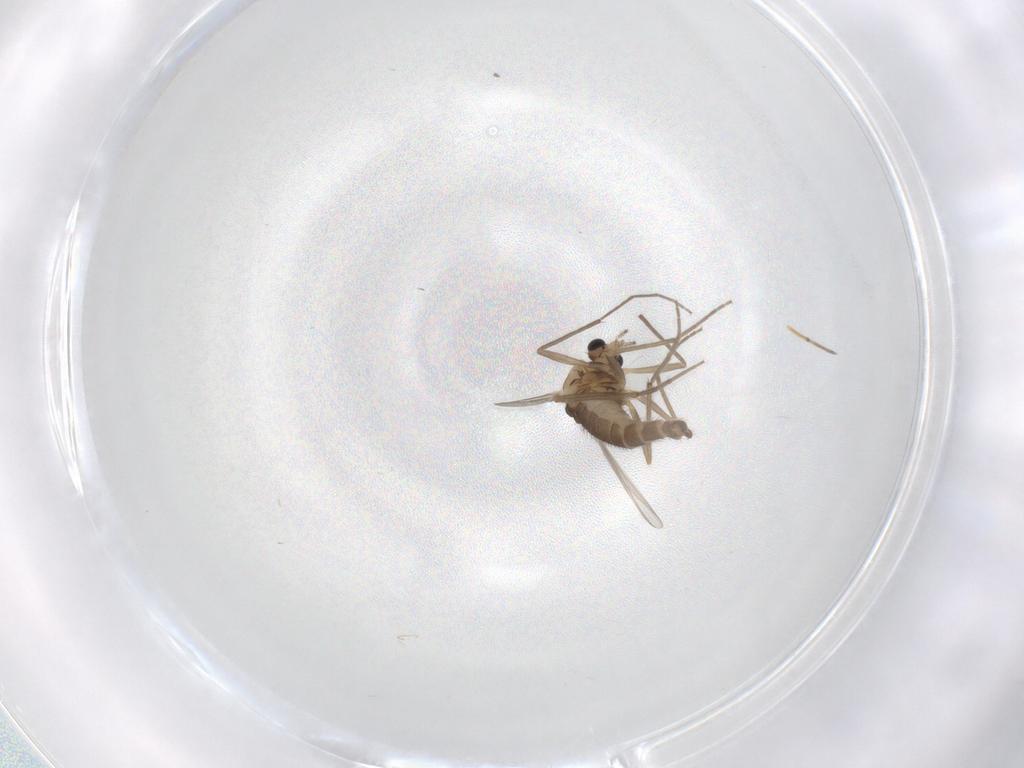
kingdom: Animalia
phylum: Arthropoda
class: Insecta
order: Diptera
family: Chironomidae
